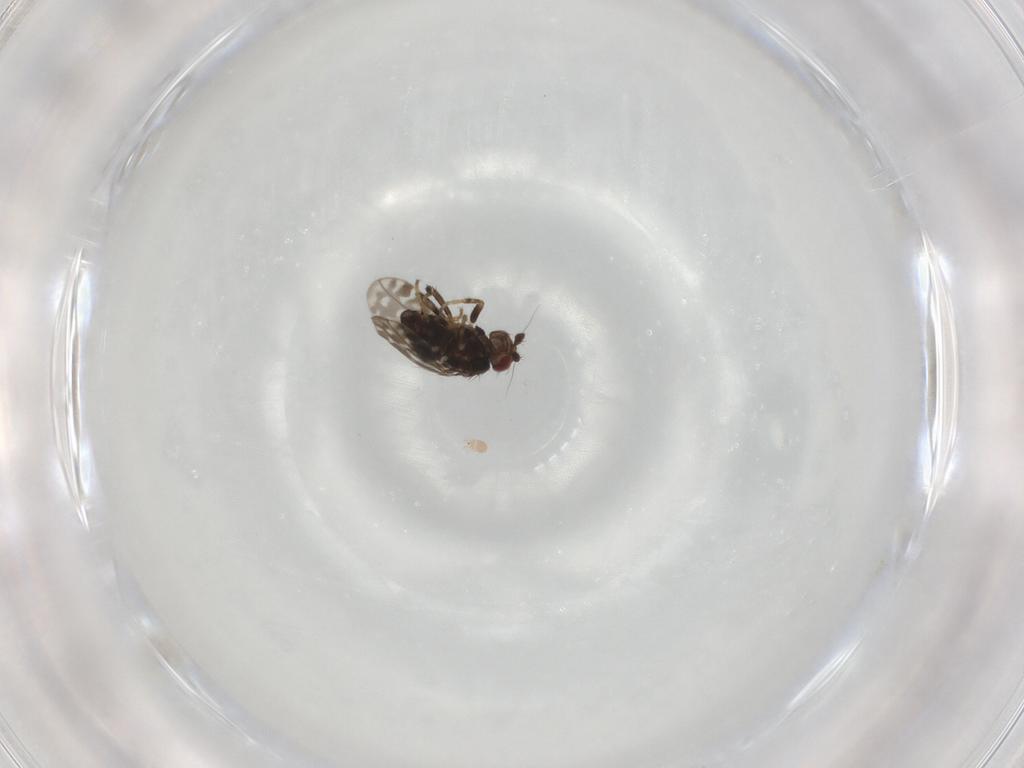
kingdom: Animalia
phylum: Arthropoda
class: Insecta
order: Diptera
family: Sphaeroceridae
